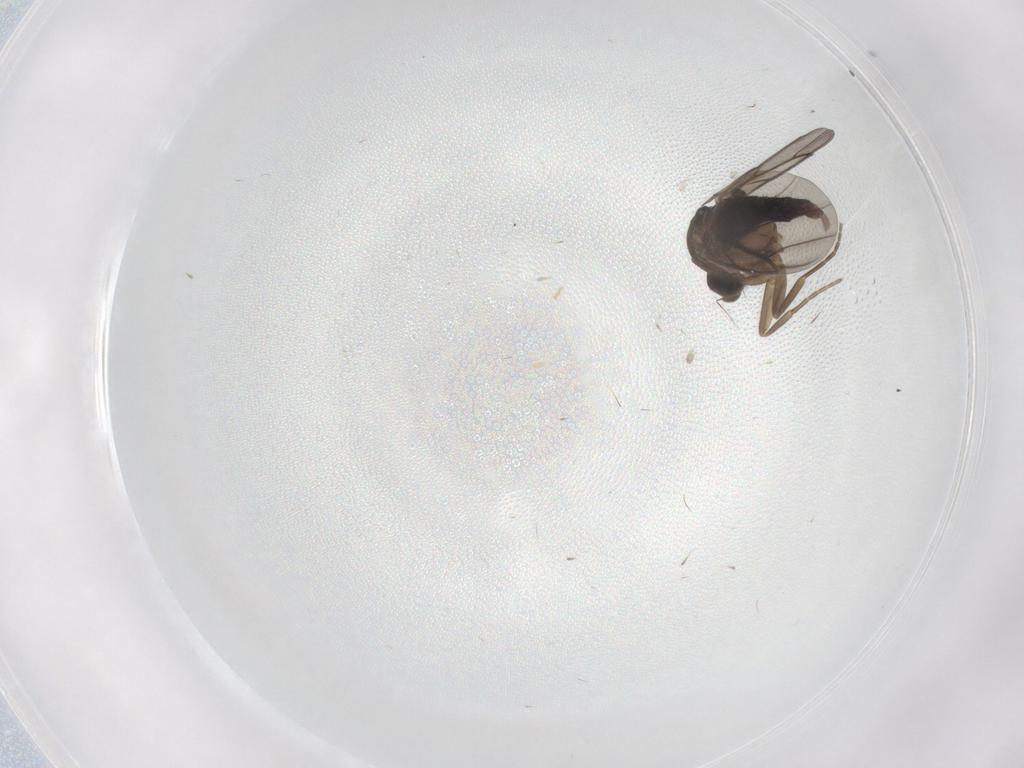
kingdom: Animalia
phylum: Arthropoda
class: Insecta
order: Diptera
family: Phoridae
